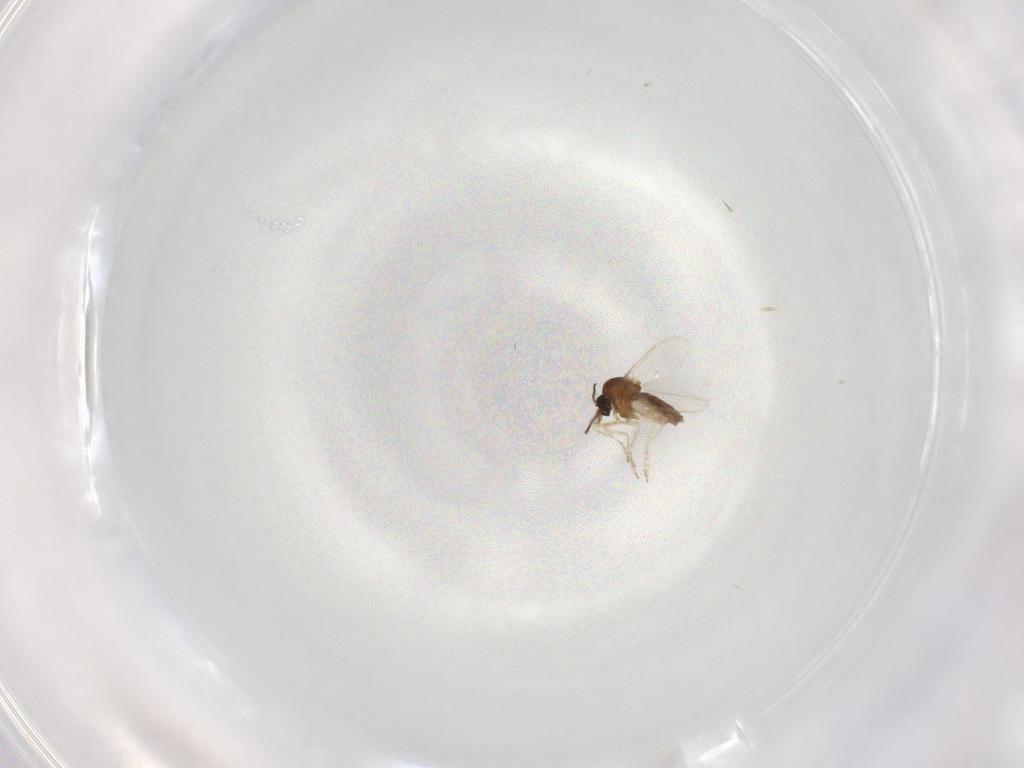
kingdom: Animalia
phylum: Arthropoda
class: Insecta
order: Diptera
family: Ceratopogonidae
